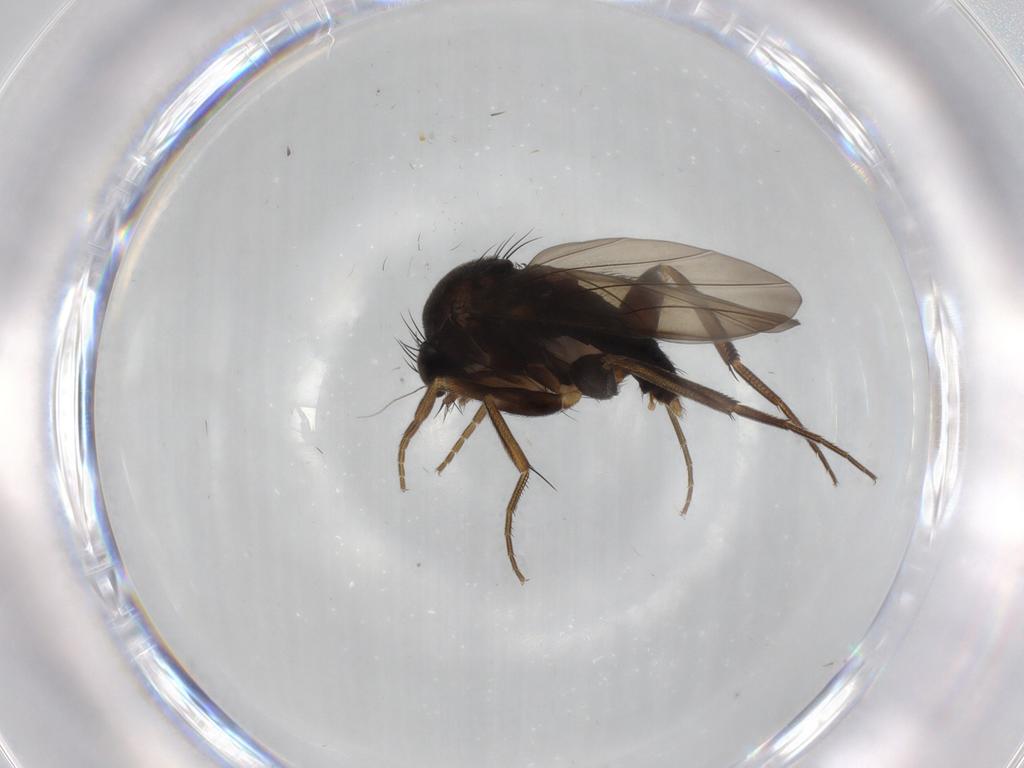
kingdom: Animalia
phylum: Arthropoda
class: Insecta
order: Diptera
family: Phoridae
